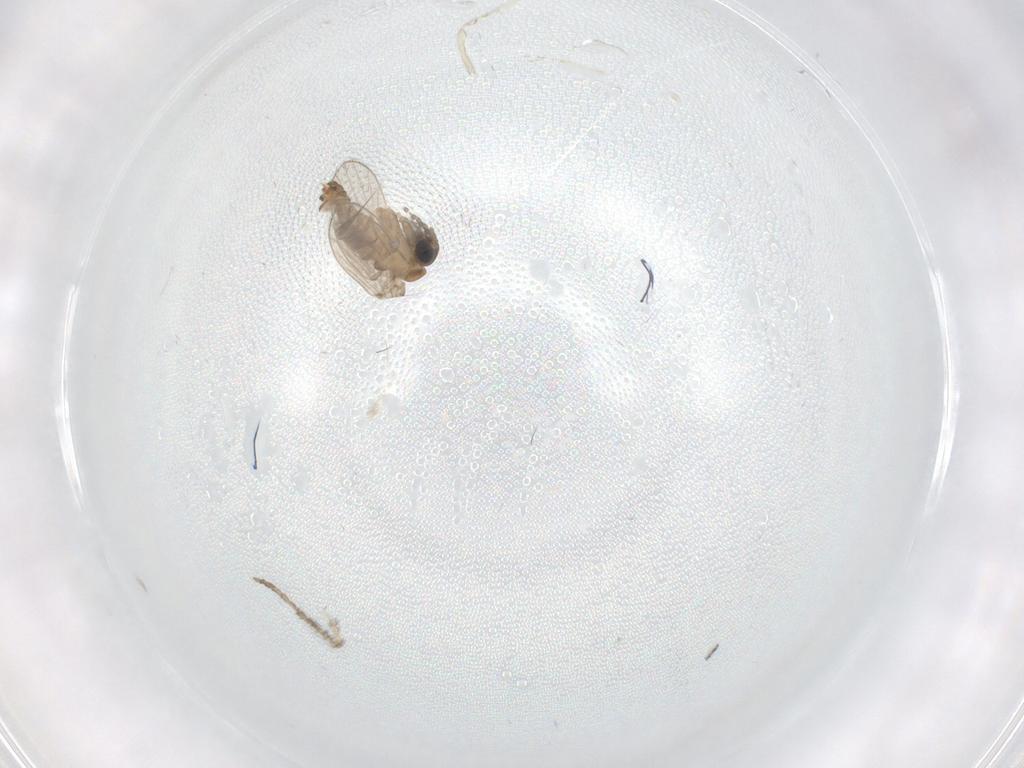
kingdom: Animalia
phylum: Arthropoda
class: Insecta
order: Diptera
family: Psychodidae
